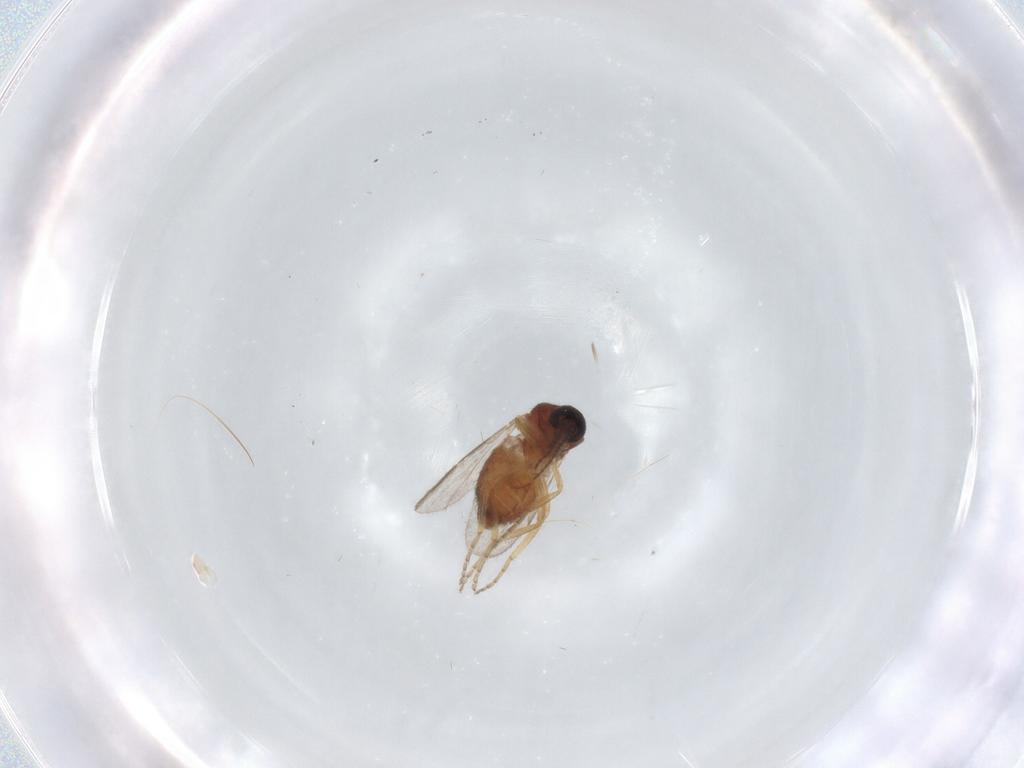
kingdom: Animalia
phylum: Arthropoda
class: Insecta
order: Diptera
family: Ceratopogonidae
